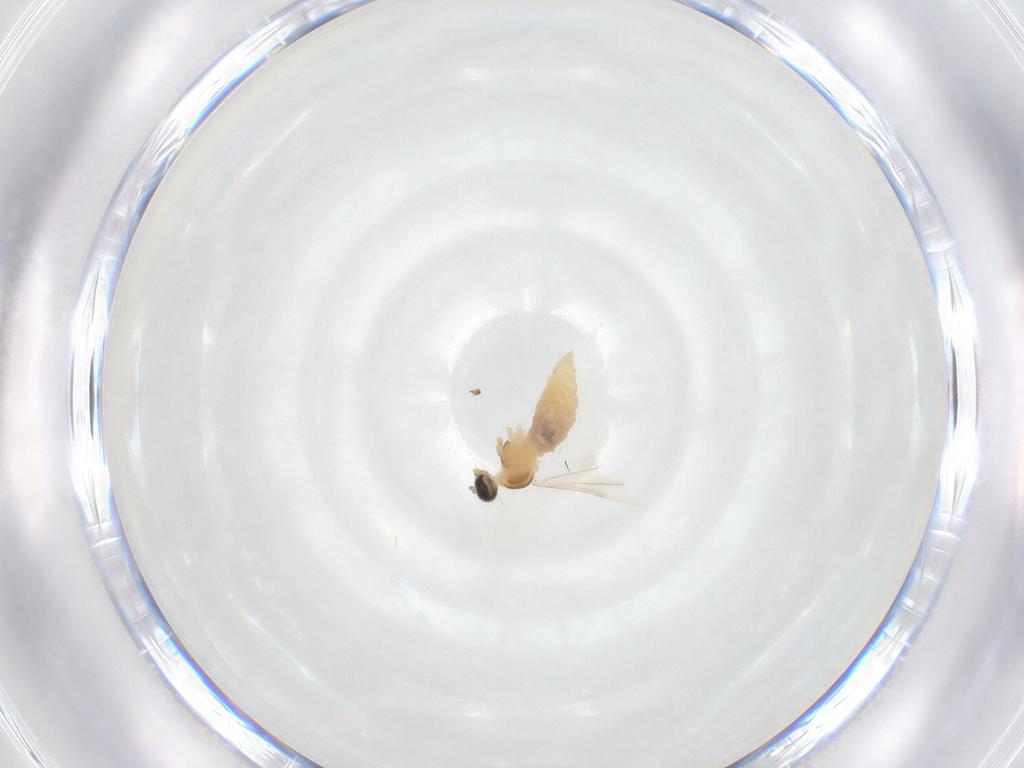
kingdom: Animalia
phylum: Arthropoda
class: Insecta
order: Diptera
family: Cecidomyiidae
